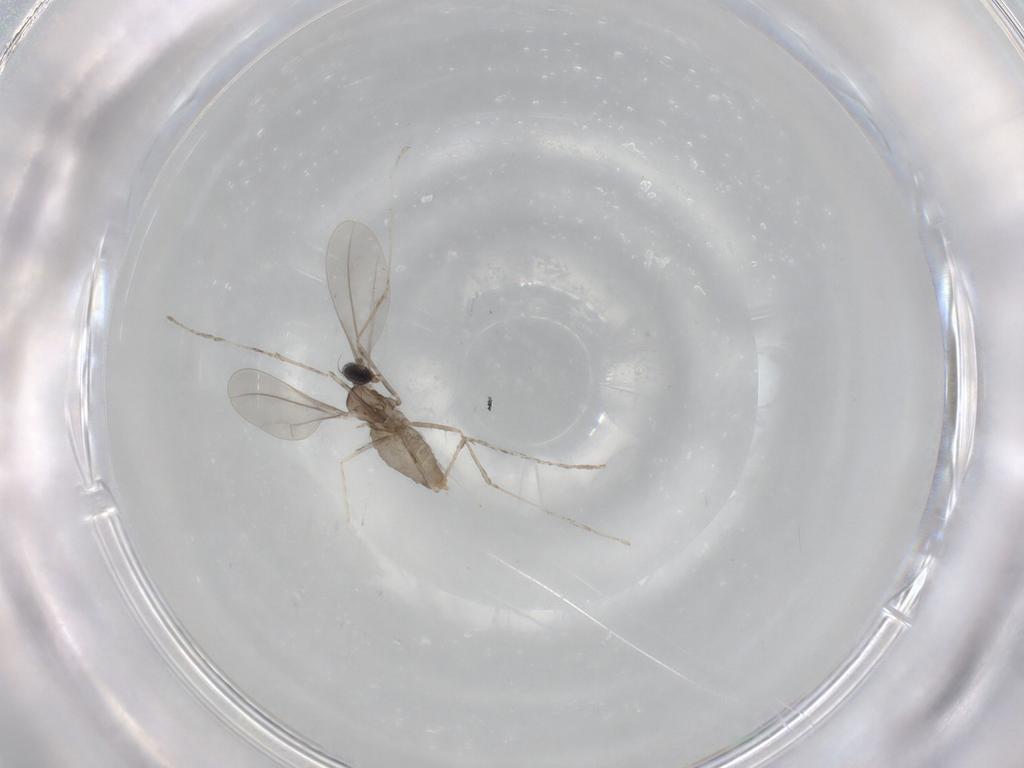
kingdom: Animalia
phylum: Arthropoda
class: Insecta
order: Diptera
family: Cecidomyiidae
